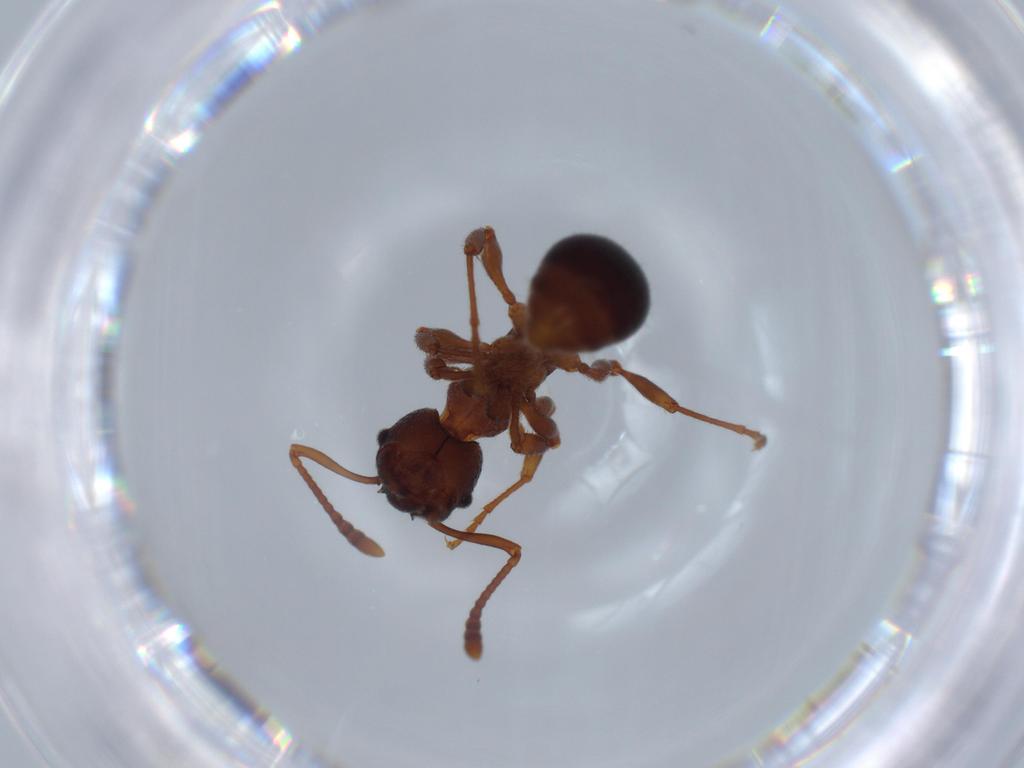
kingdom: Animalia
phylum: Arthropoda
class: Insecta
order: Hymenoptera
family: Formicidae
